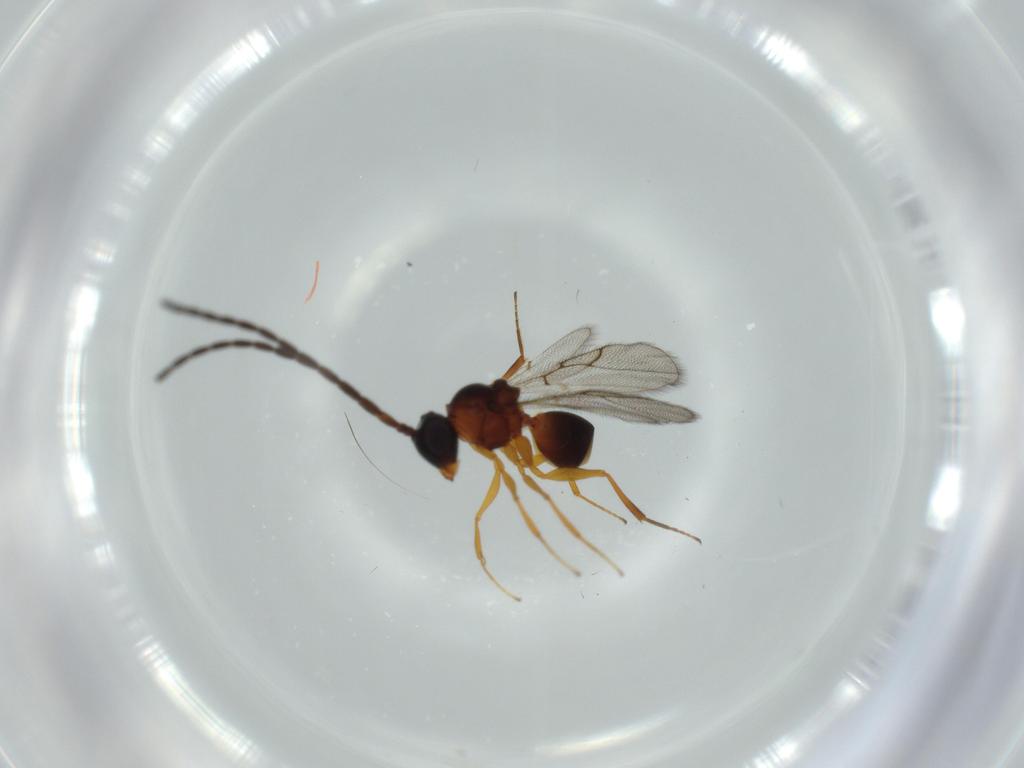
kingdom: Animalia
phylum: Arthropoda
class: Insecta
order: Hymenoptera
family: Figitidae
